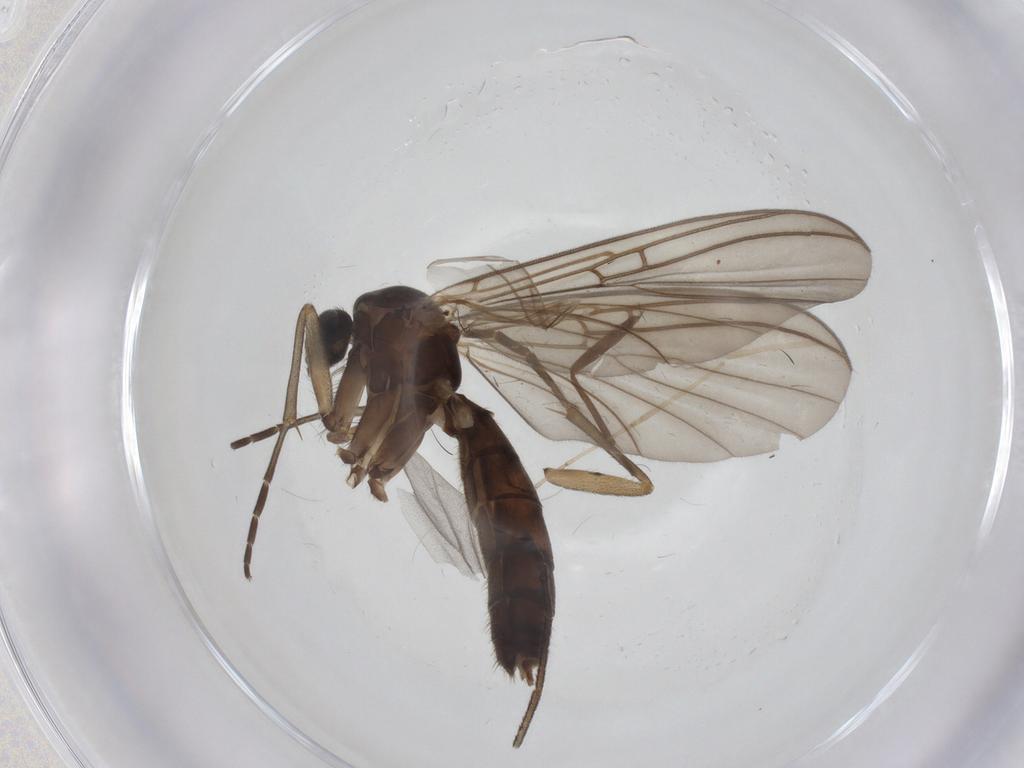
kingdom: Animalia
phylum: Arthropoda
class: Insecta
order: Diptera
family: Cecidomyiidae
